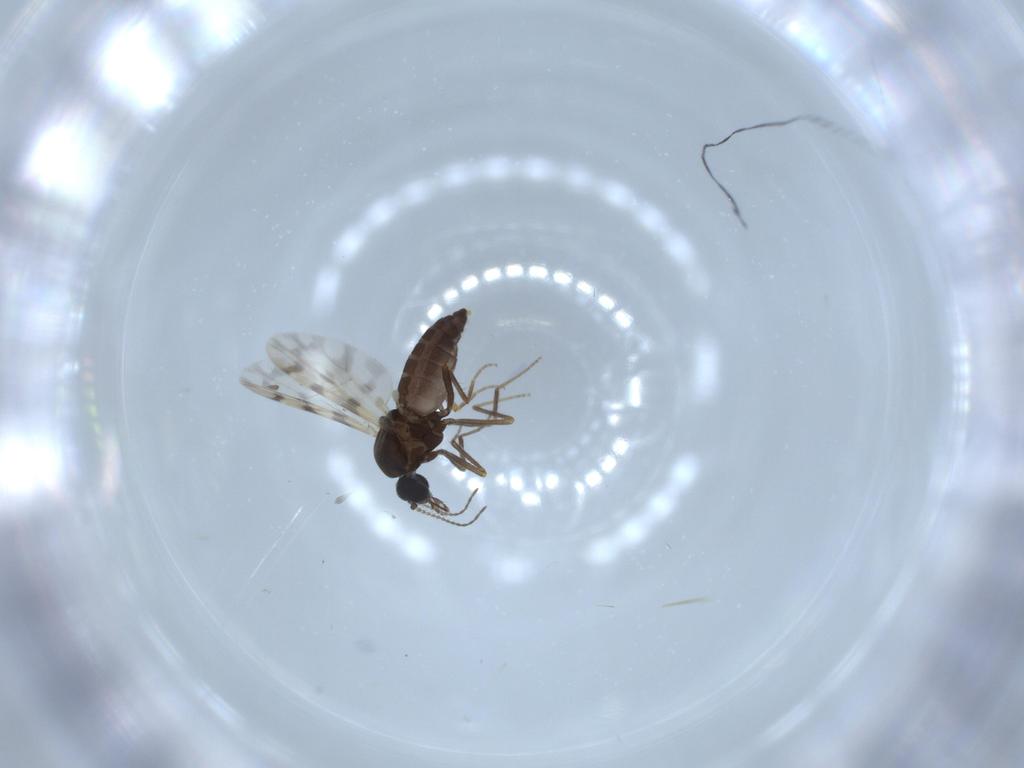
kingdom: Animalia
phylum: Arthropoda
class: Insecta
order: Diptera
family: Ceratopogonidae
